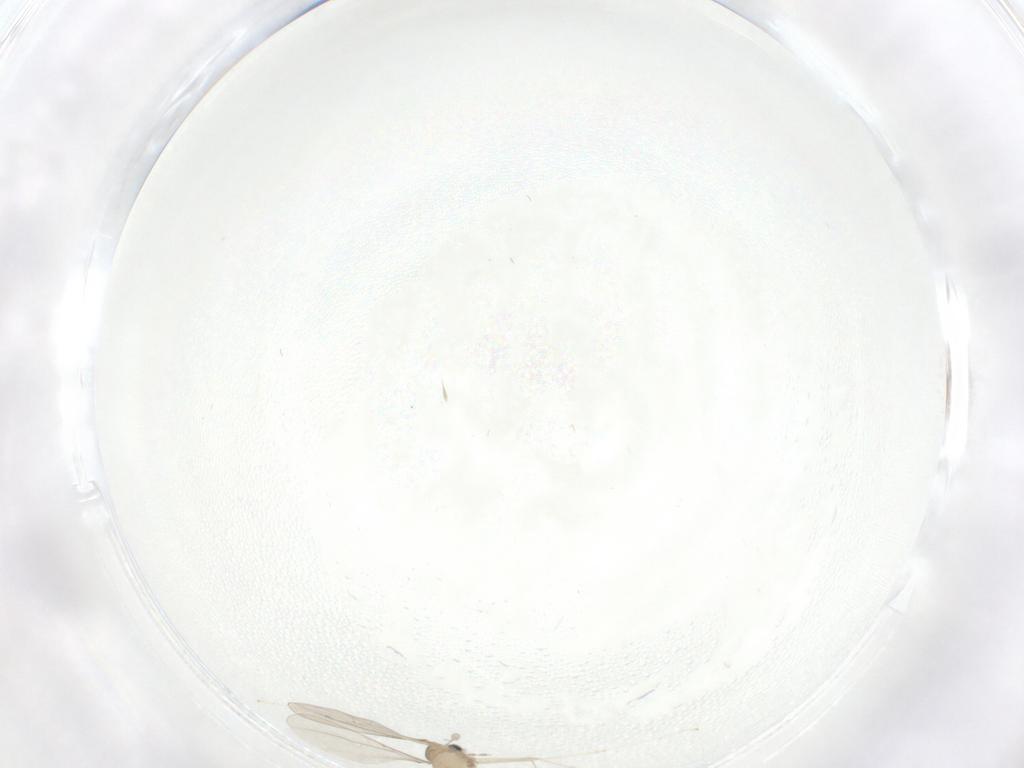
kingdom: Animalia
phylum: Arthropoda
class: Insecta
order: Diptera
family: Cecidomyiidae
